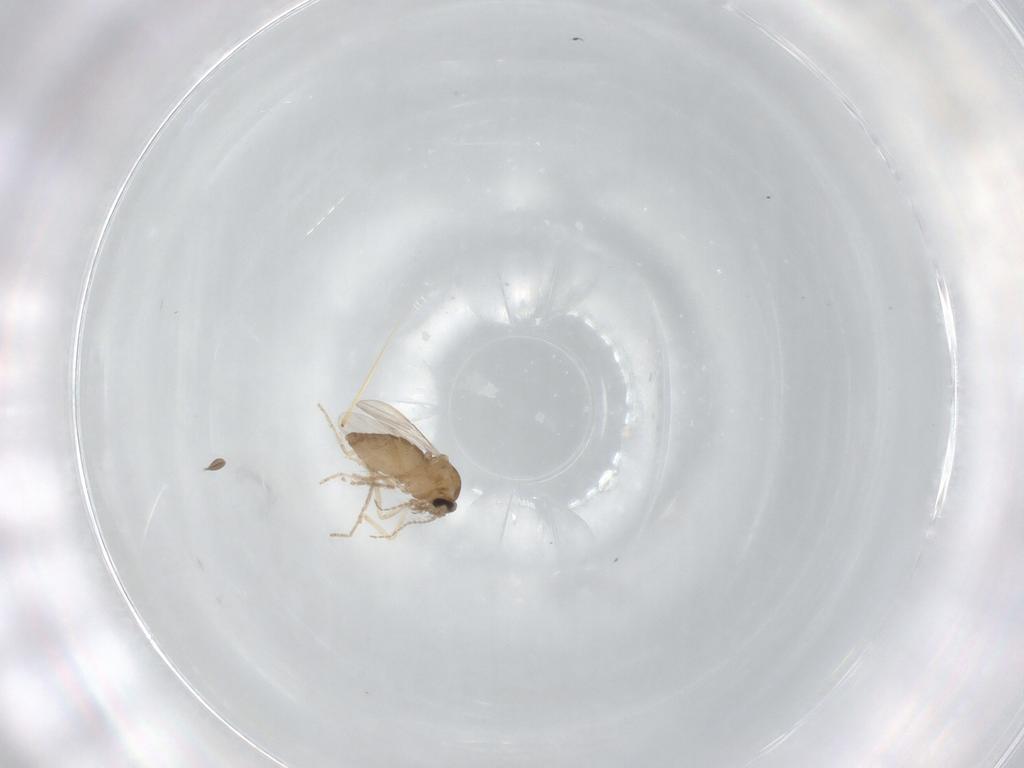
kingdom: Animalia
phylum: Arthropoda
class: Insecta
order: Diptera
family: Ceratopogonidae
